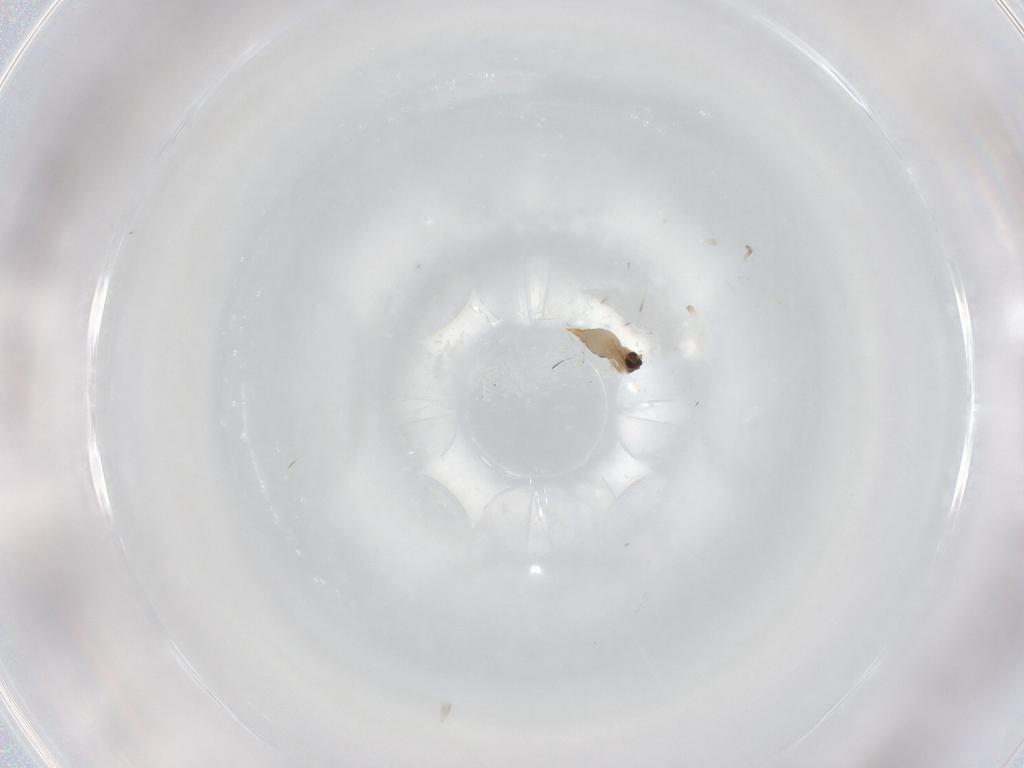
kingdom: Animalia
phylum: Arthropoda
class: Insecta
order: Diptera
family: Cecidomyiidae
